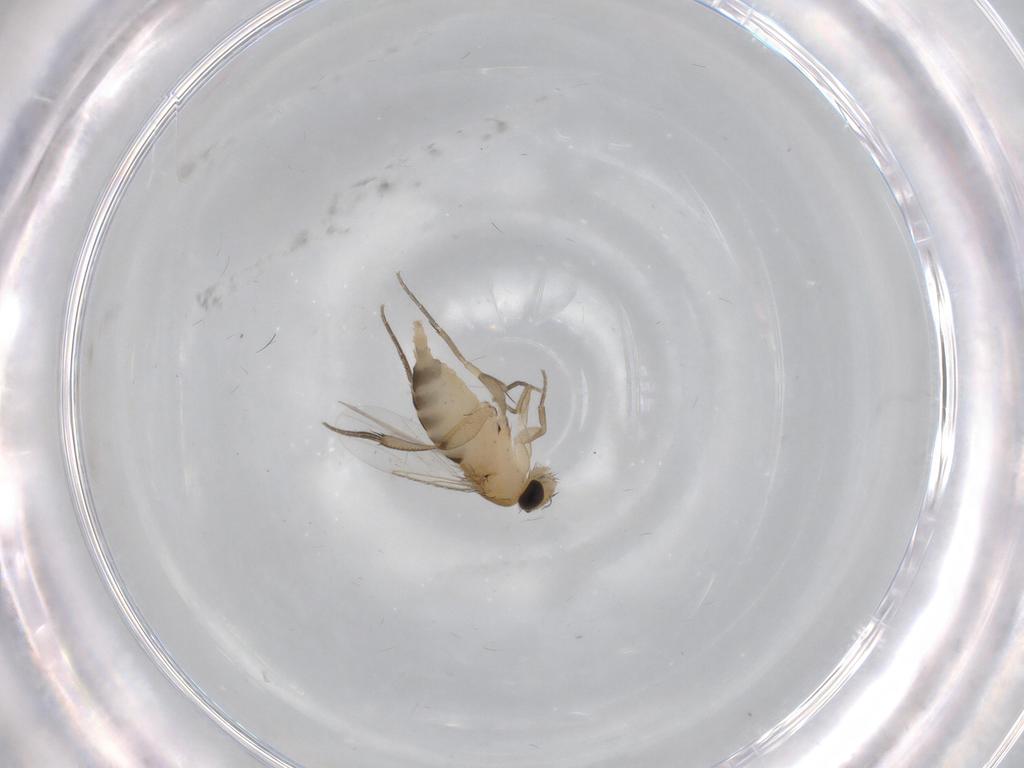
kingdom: Animalia
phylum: Arthropoda
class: Insecta
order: Diptera
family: Phoridae
